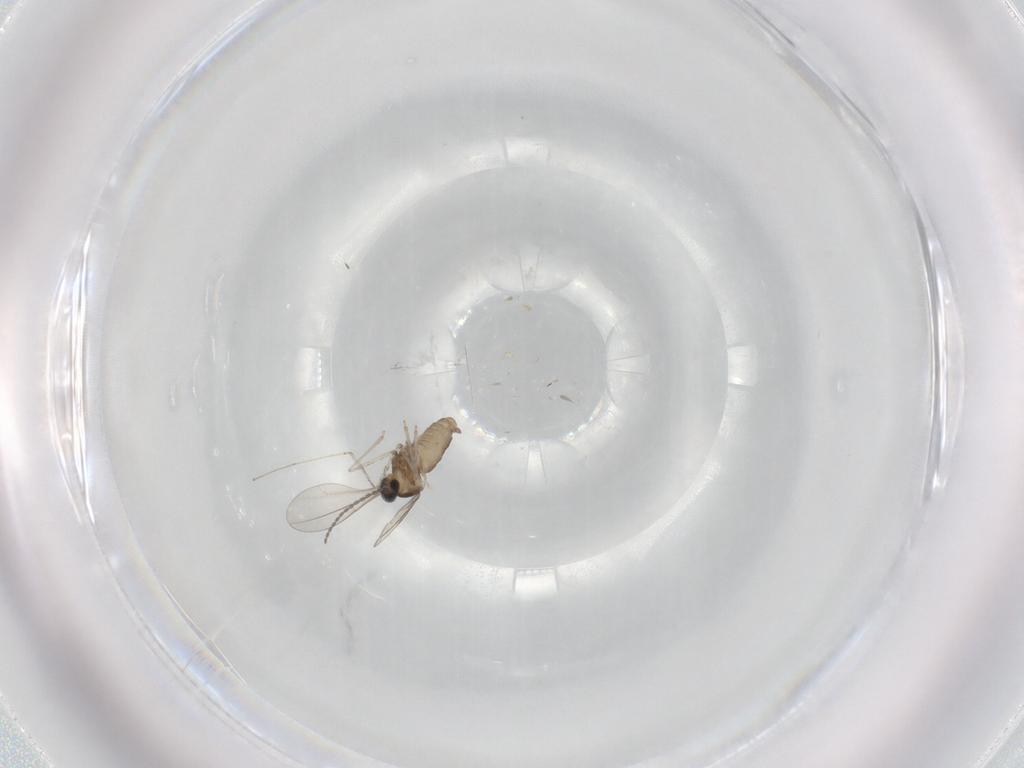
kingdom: Animalia
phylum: Arthropoda
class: Insecta
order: Diptera
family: Cecidomyiidae
